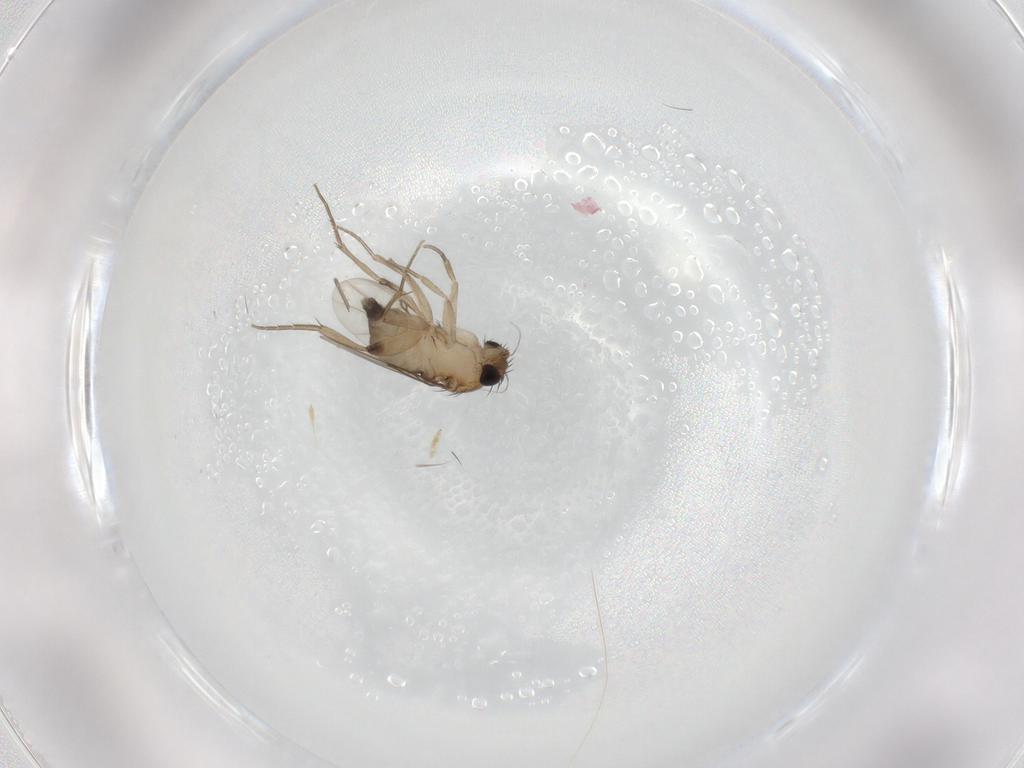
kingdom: Animalia
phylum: Arthropoda
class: Insecta
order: Diptera
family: Phoridae
